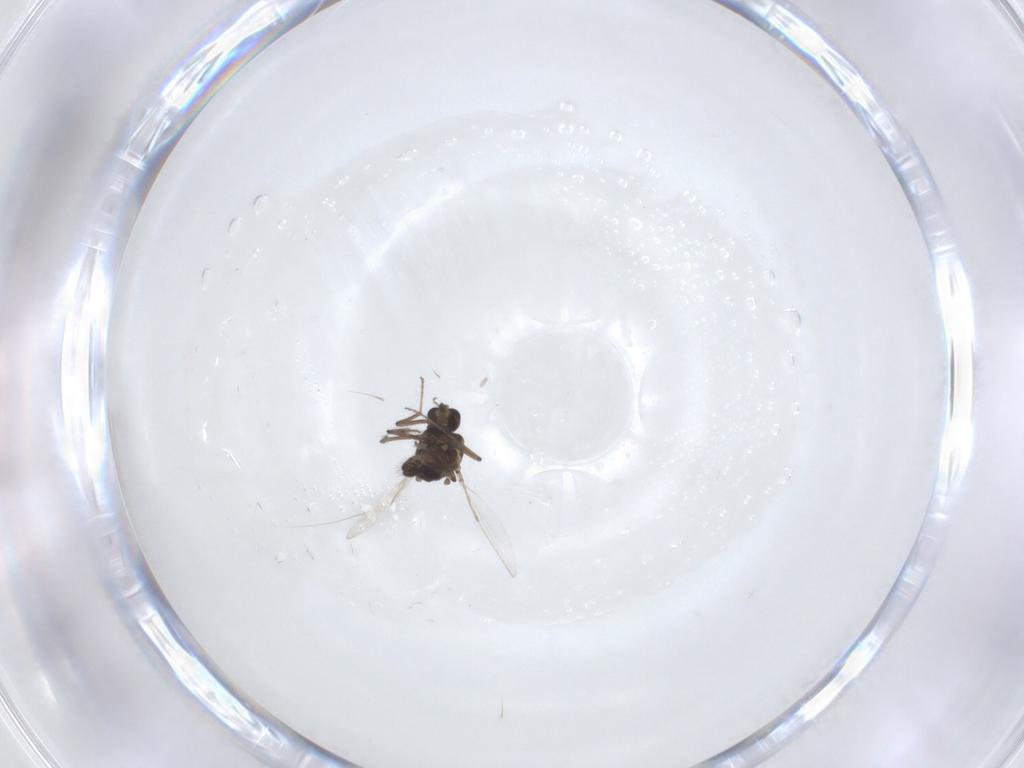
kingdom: Animalia
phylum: Arthropoda
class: Insecta
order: Diptera
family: Ceratopogonidae
